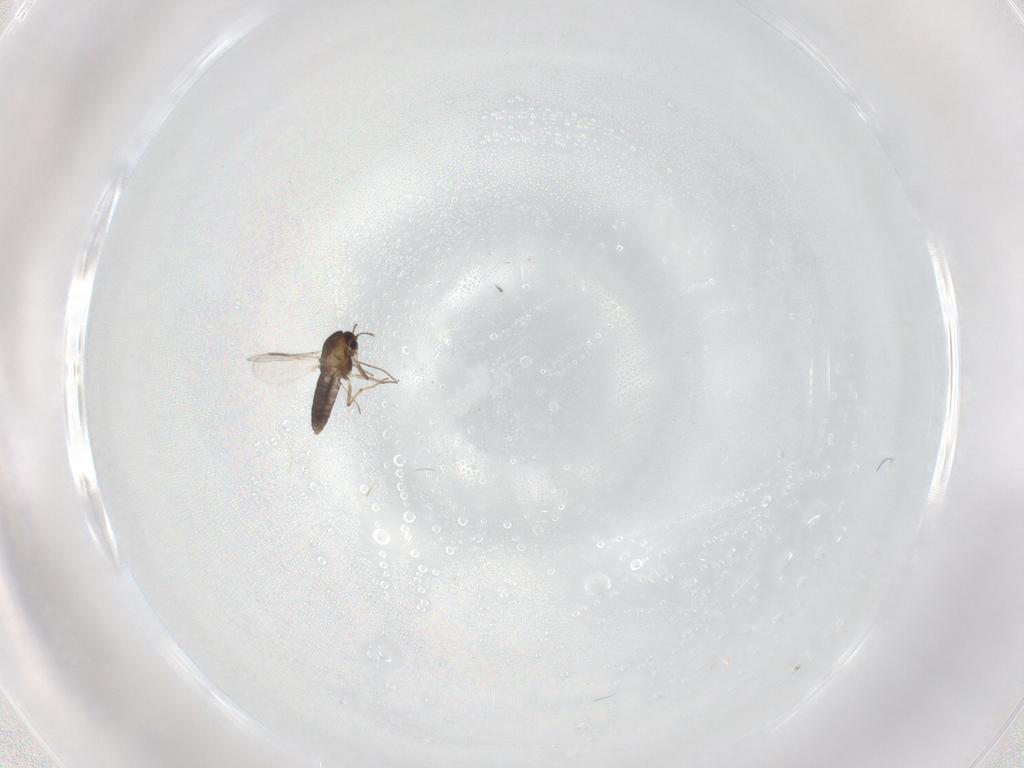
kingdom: Animalia
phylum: Arthropoda
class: Insecta
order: Diptera
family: Chironomidae
